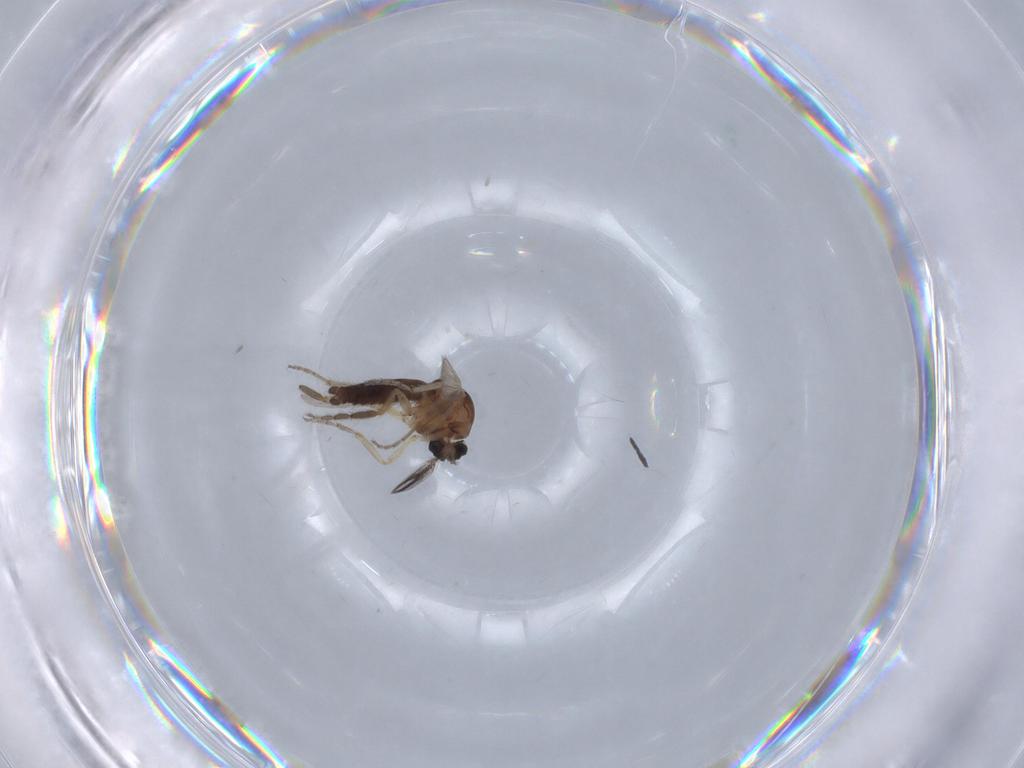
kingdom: Animalia
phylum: Arthropoda
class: Insecta
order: Diptera
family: Ceratopogonidae
